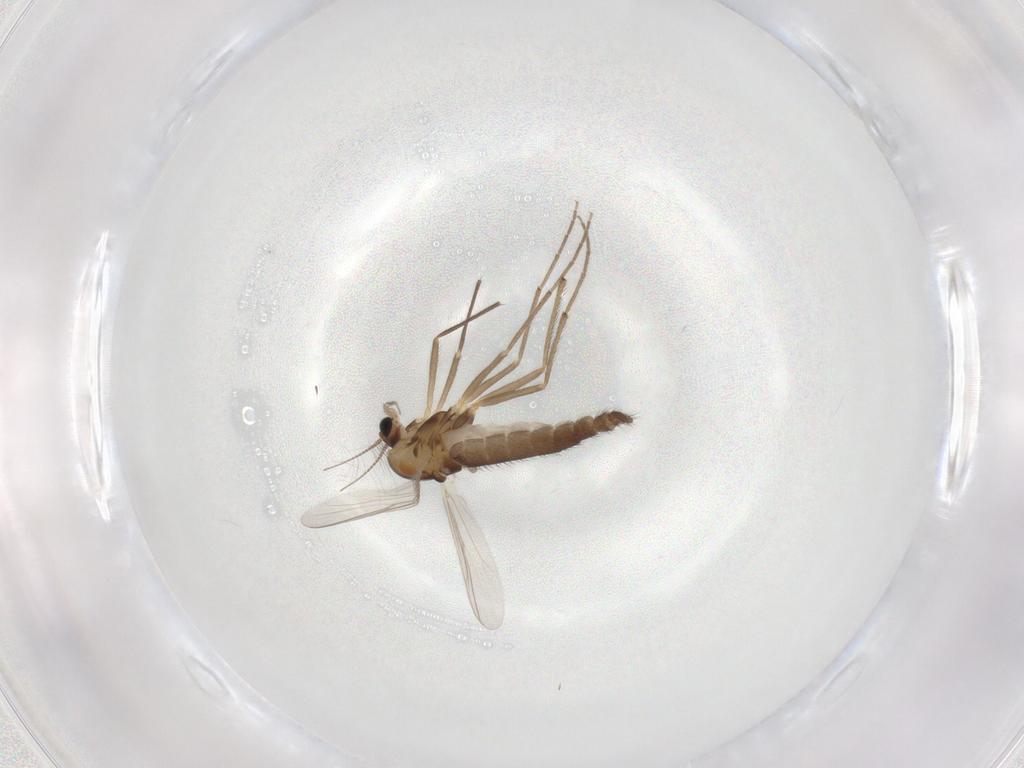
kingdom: Animalia
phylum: Arthropoda
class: Insecta
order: Diptera
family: Chironomidae
